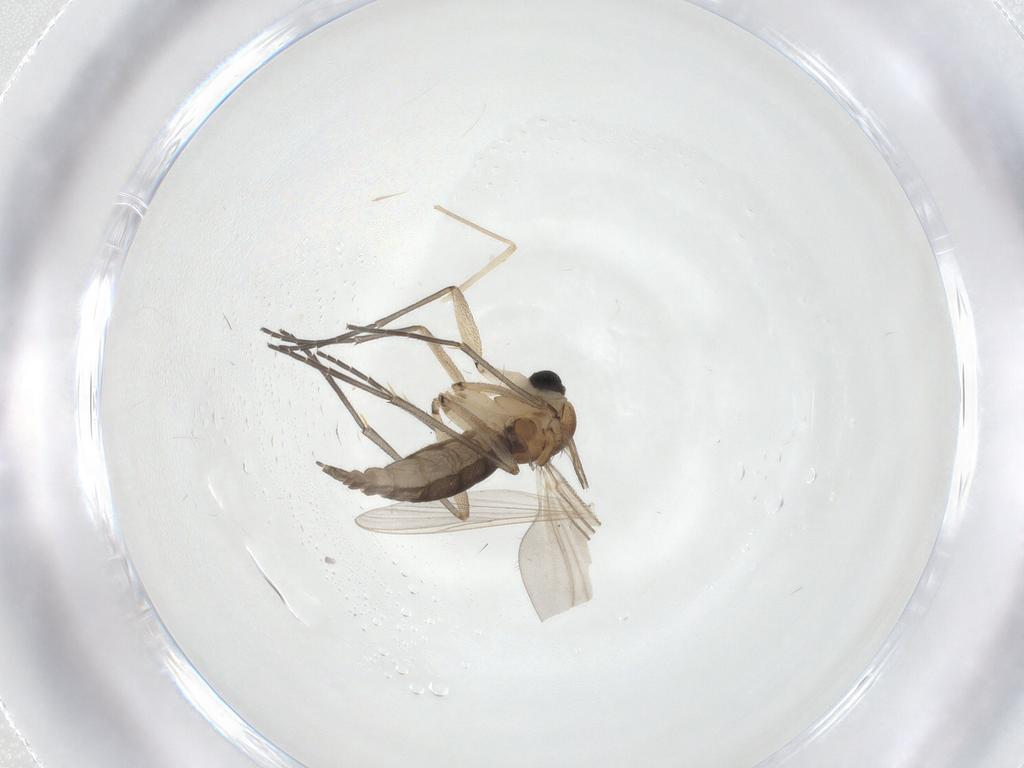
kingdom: Animalia
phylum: Arthropoda
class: Insecta
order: Diptera
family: Sciaridae
